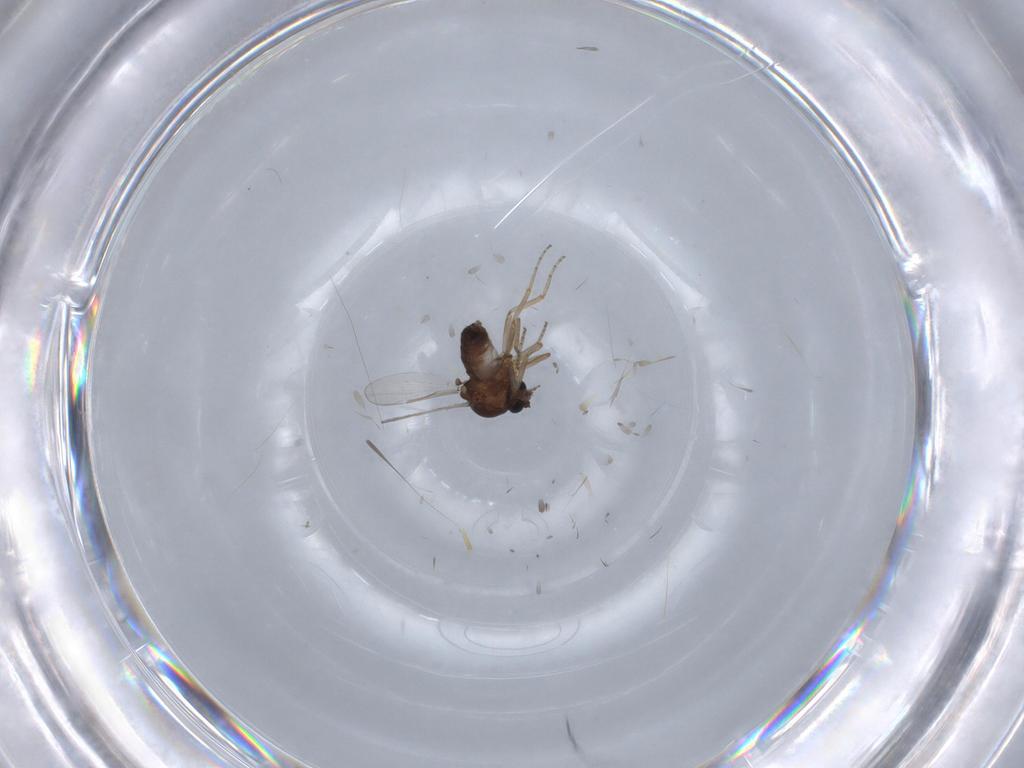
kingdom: Animalia
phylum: Arthropoda
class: Insecta
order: Diptera
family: Ceratopogonidae
